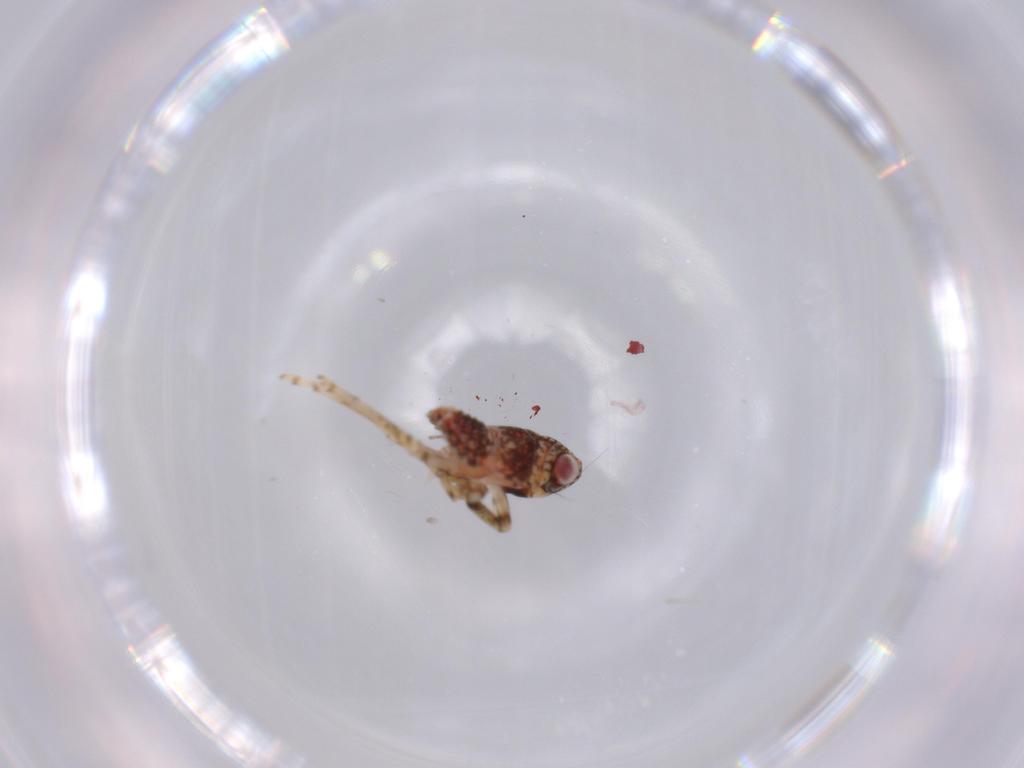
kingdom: Animalia
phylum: Arthropoda
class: Insecta
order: Hemiptera
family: Issidae
